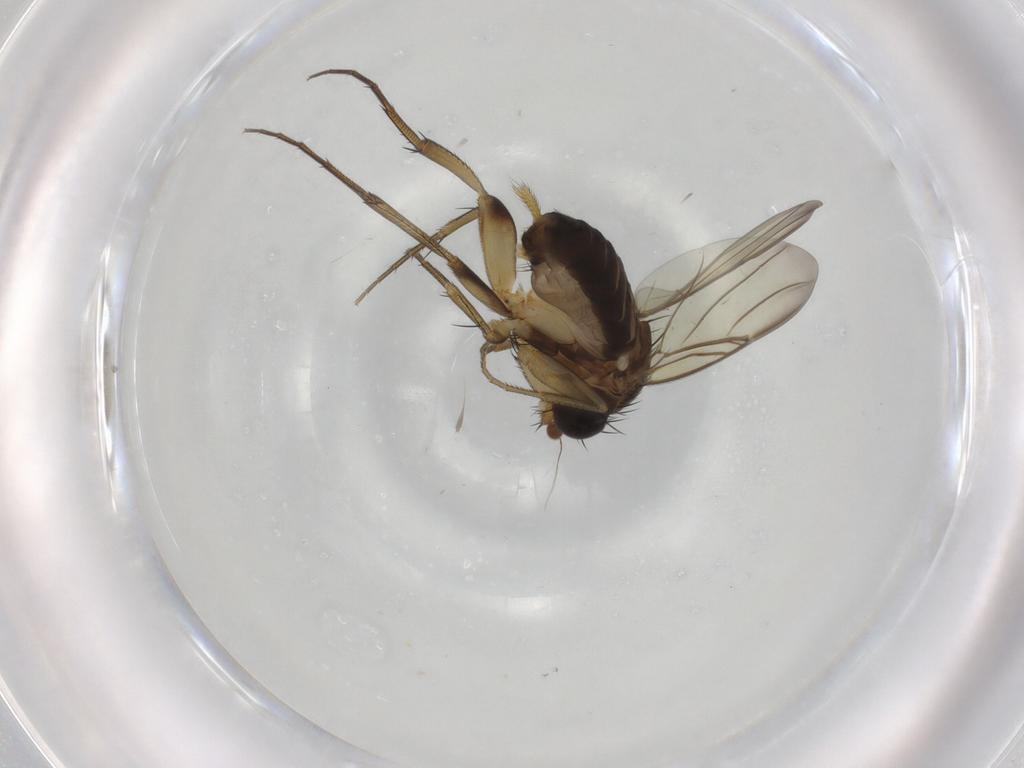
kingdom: Animalia
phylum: Arthropoda
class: Insecta
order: Diptera
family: Phoridae
